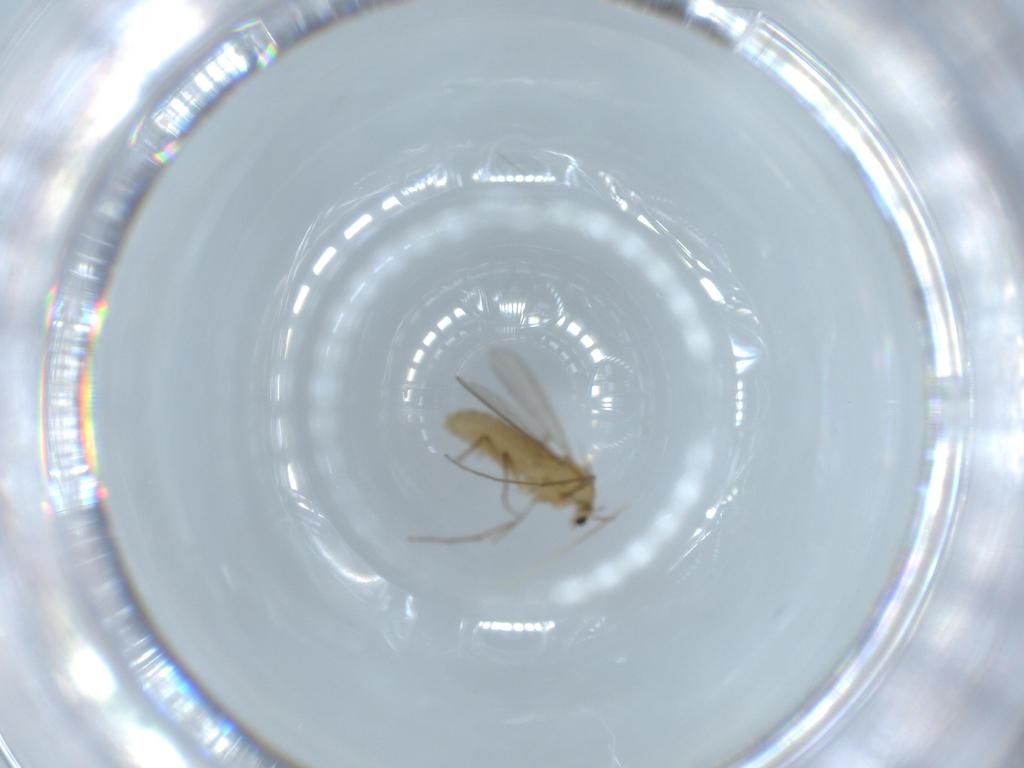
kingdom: Animalia
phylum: Arthropoda
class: Insecta
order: Diptera
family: Chironomidae
